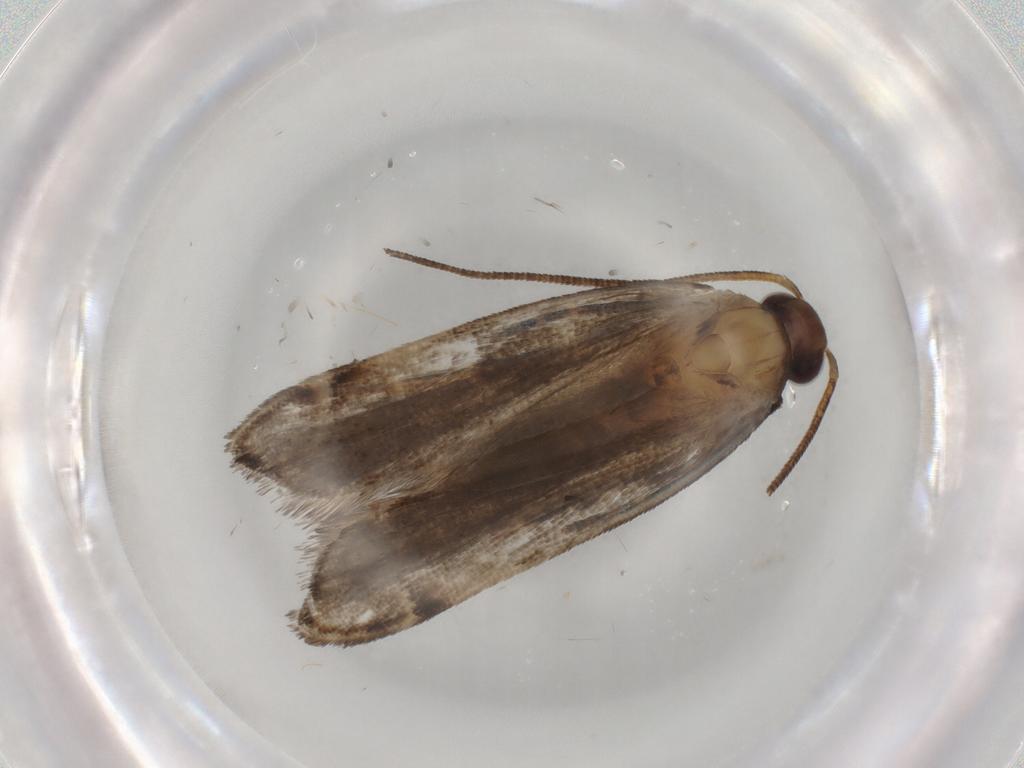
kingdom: Animalia
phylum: Arthropoda
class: Insecta
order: Lepidoptera
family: Gelechiidae
